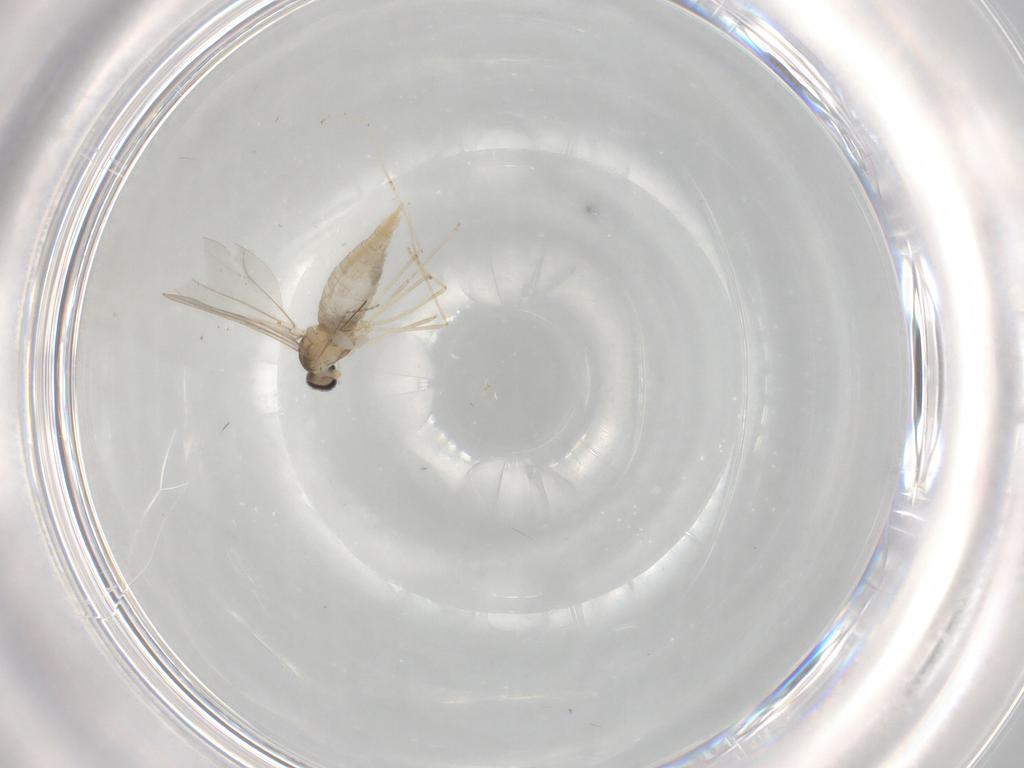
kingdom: Animalia
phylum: Arthropoda
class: Insecta
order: Diptera
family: Cecidomyiidae
